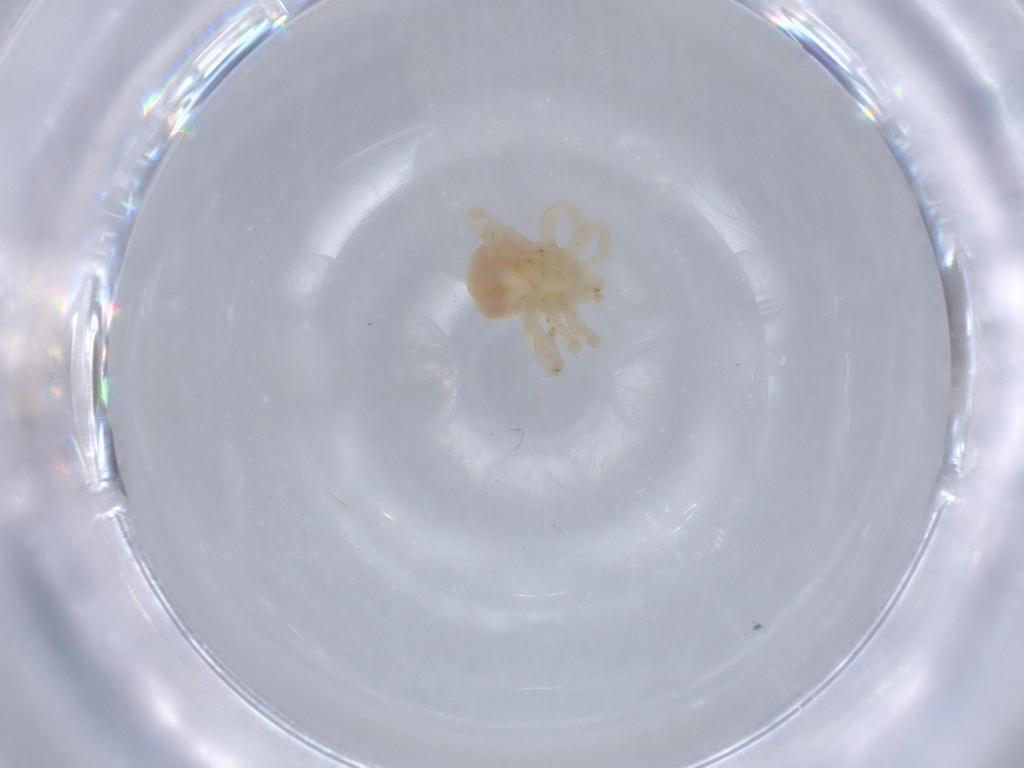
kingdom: Animalia
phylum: Arthropoda
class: Arachnida
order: Trombidiformes
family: Anystidae
